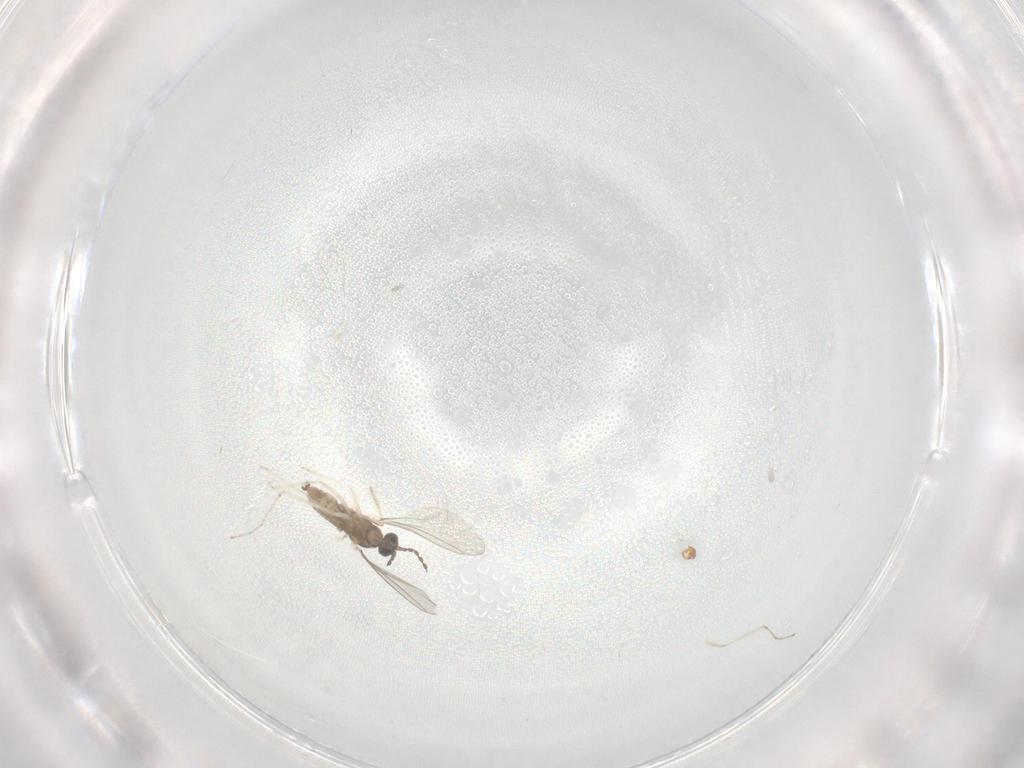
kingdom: Animalia
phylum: Arthropoda
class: Insecta
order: Diptera
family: Cecidomyiidae
